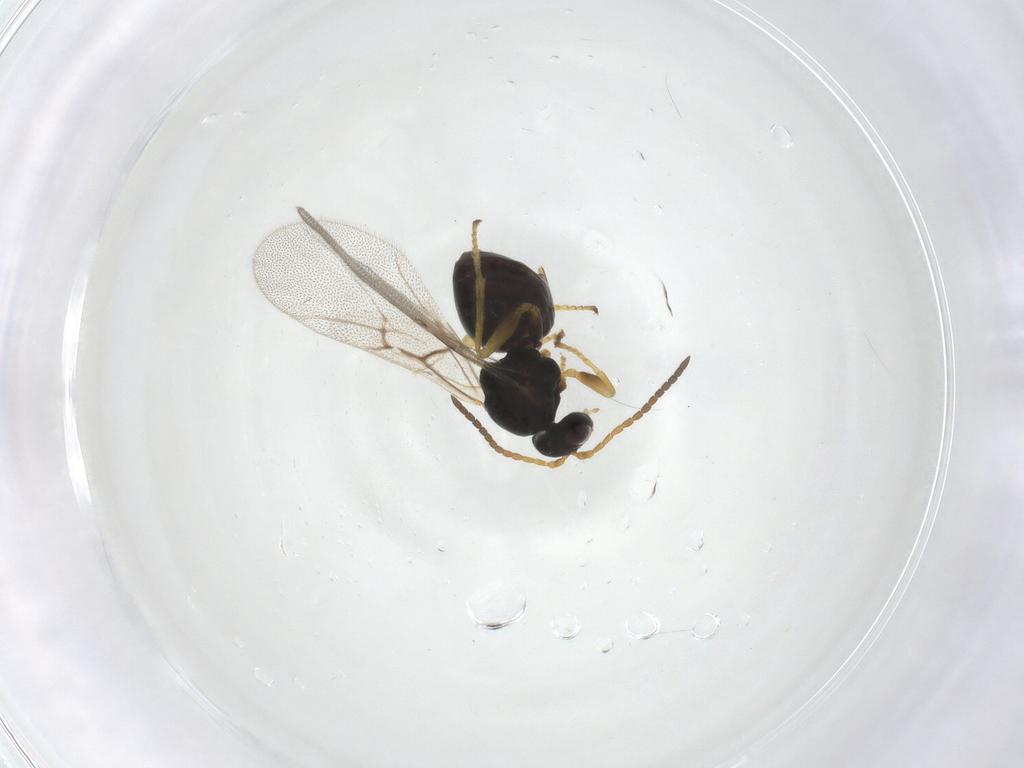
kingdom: Animalia
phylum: Arthropoda
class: Insecta
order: Hymenoptera
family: Cynipidae
